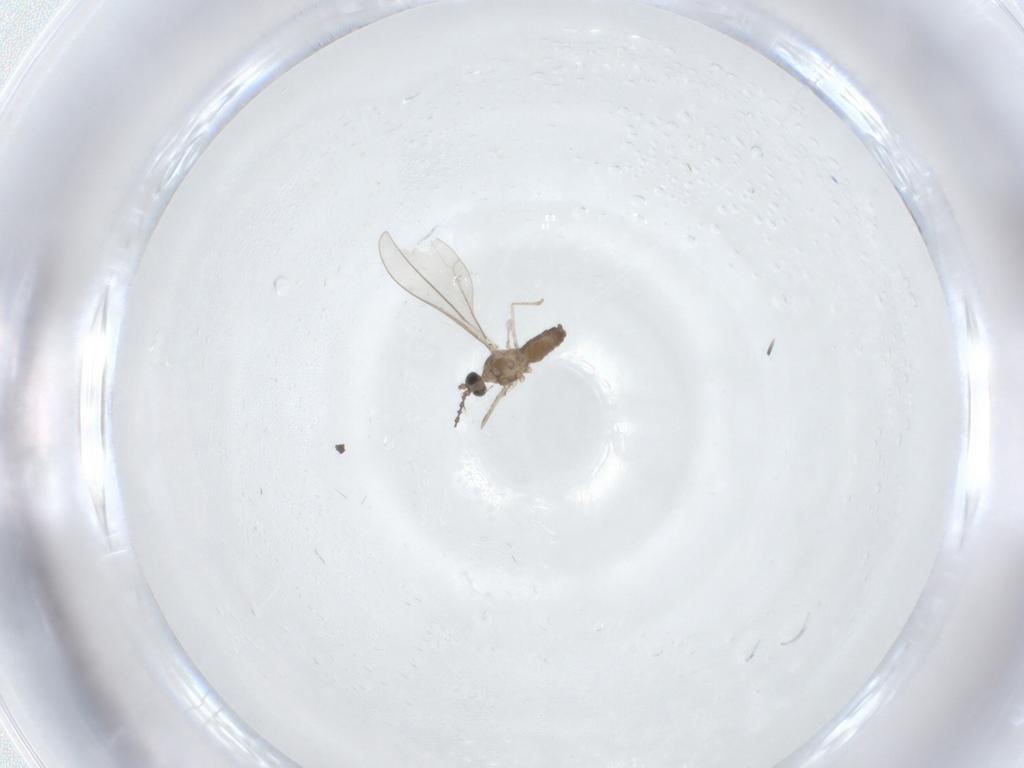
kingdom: Animalia
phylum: Arthropoda
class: Insecta
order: Diptera
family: Cecidomyiidae
